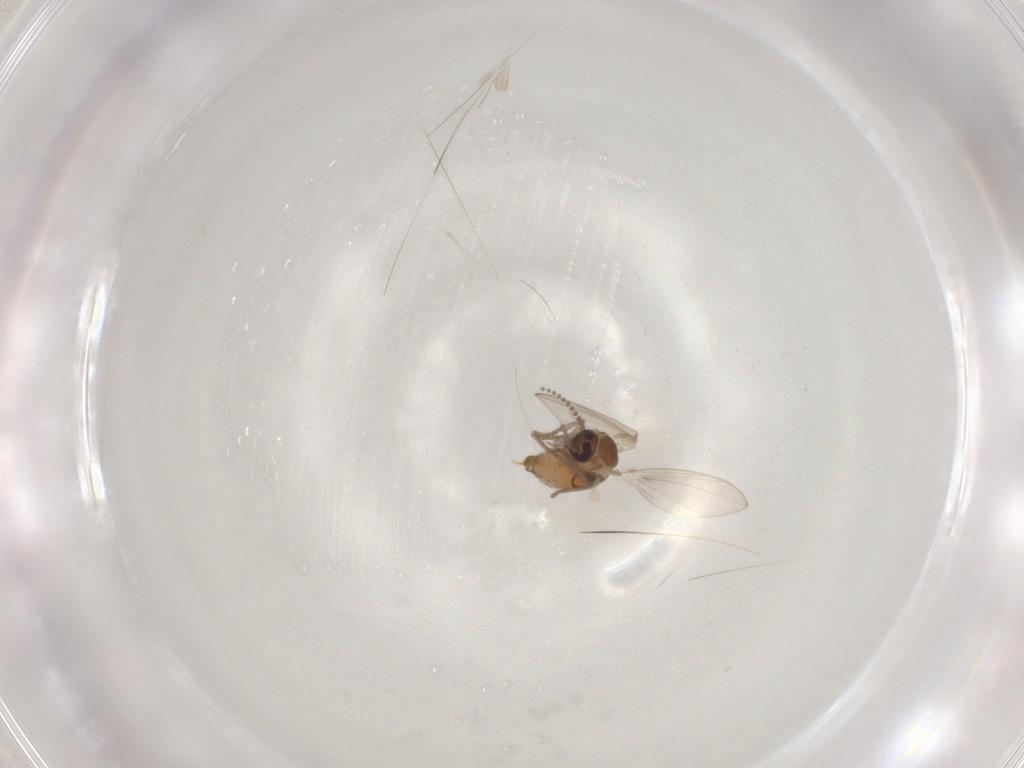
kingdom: Animalia
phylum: Arthropoda
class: Insecta
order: Diptera
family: Psychodidae
